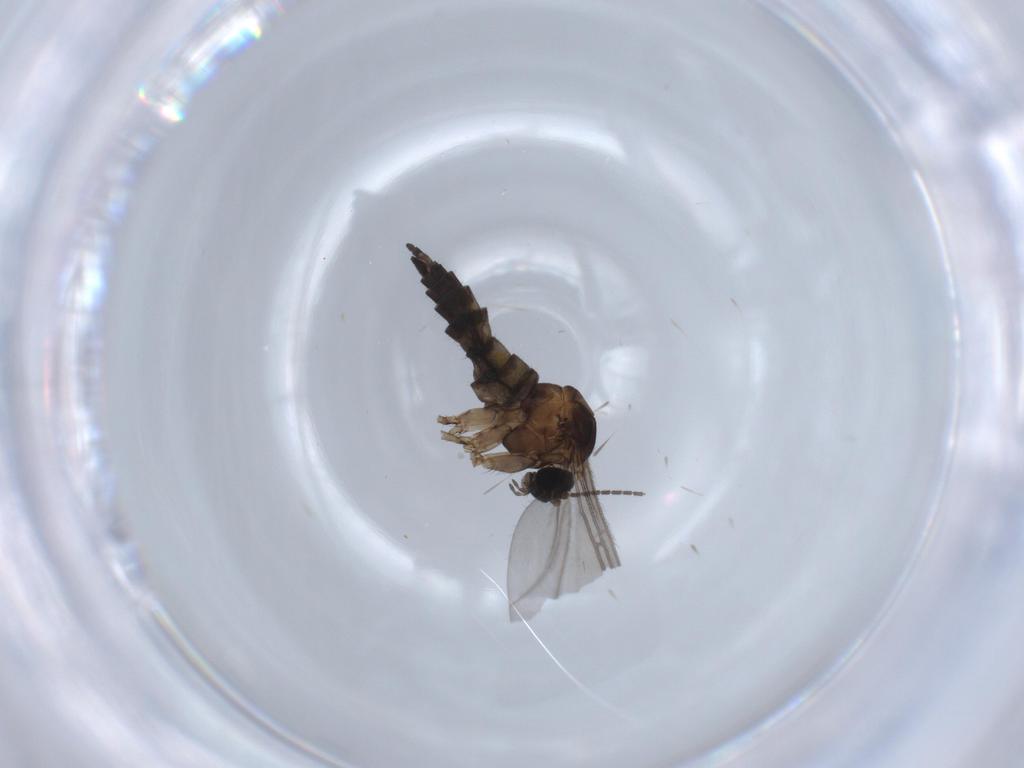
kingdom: Animalia
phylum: Arthropoda
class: Insecta
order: Diptera
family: Sciaridae
